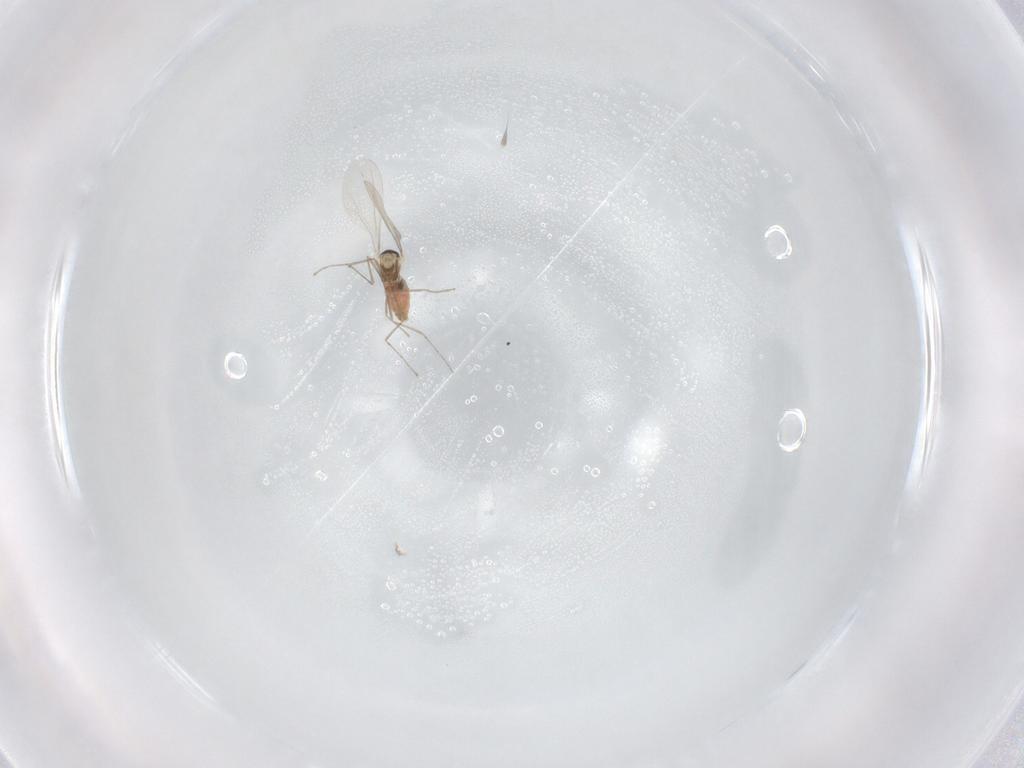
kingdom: Animalia
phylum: Arthropoda
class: Insecta
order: Diptera
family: Cecidomyiidae
